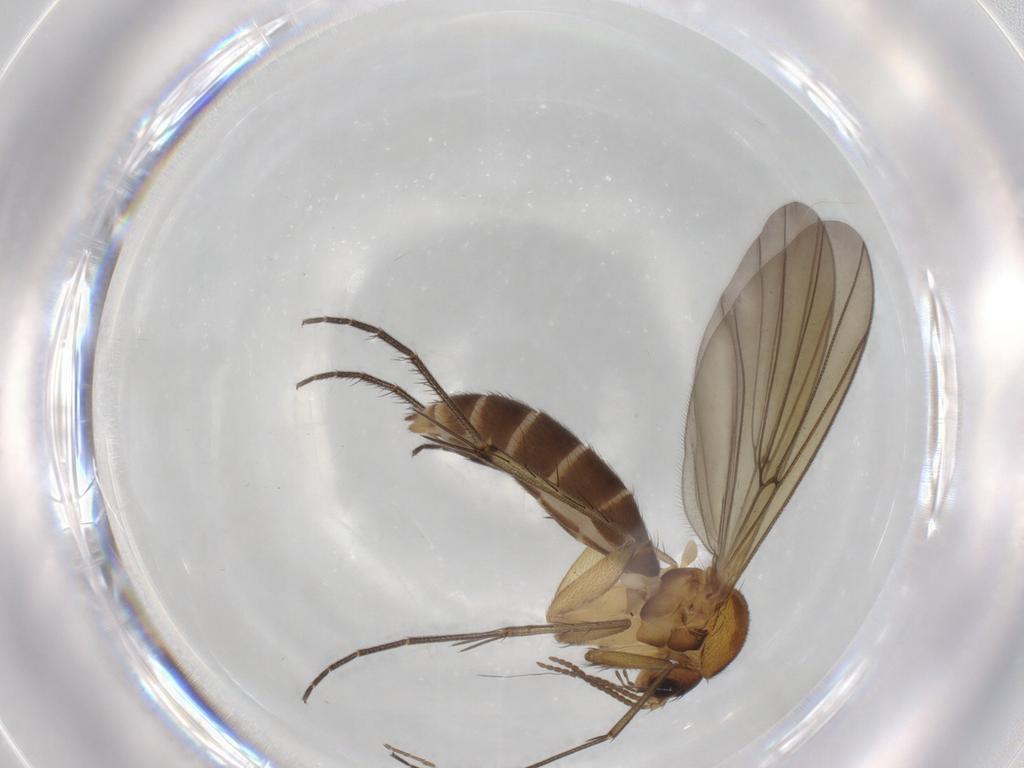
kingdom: Animalia
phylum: Arthropoda
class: Insecta
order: Diptera
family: Mycetophilidae
